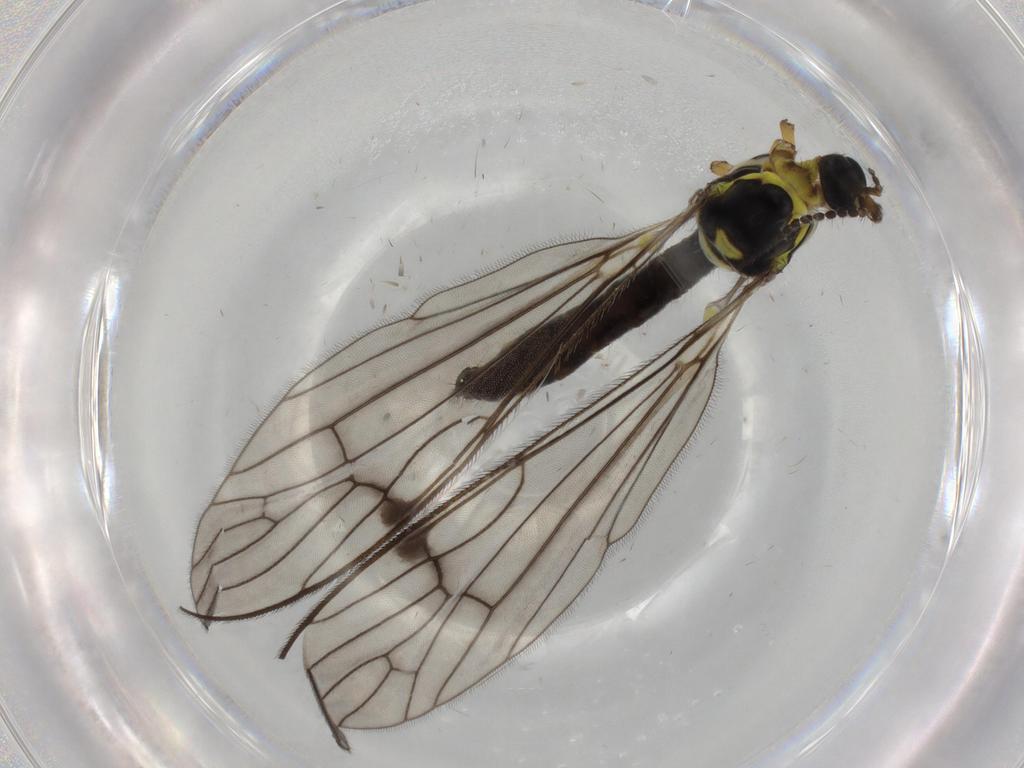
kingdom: Animalia
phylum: Arthropoda
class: Insecta
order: Diptera
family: Limoniidae
